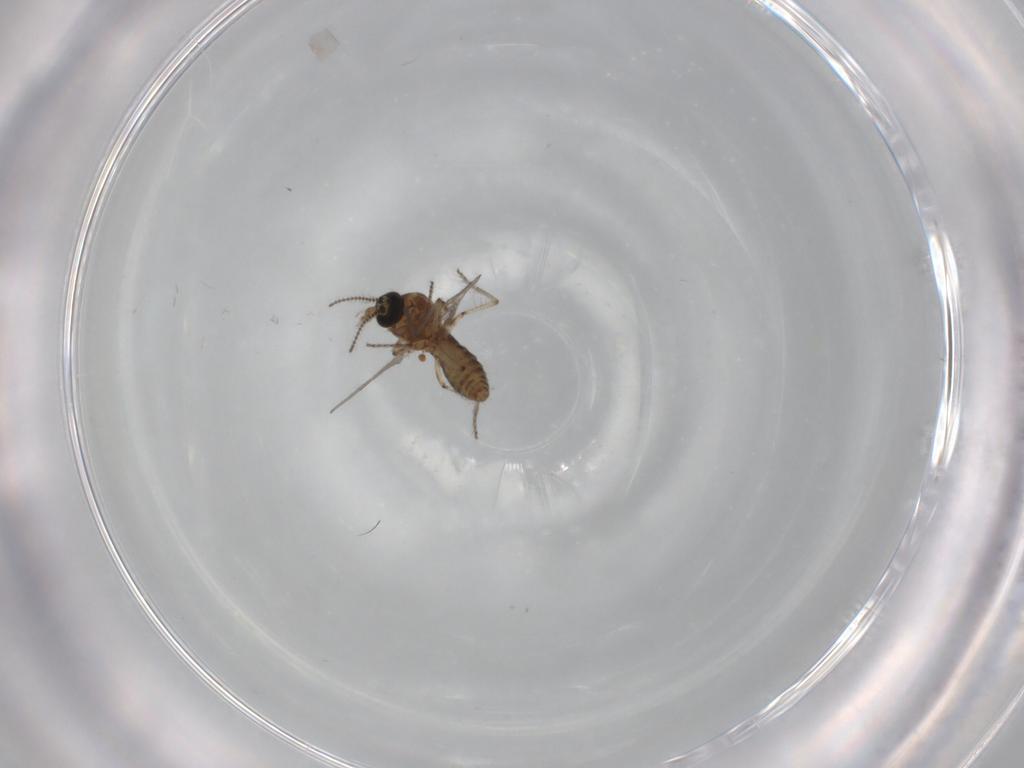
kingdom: Animalia
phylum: Arthropoda
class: Insecta
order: Diptera
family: Ceratopogonidae
